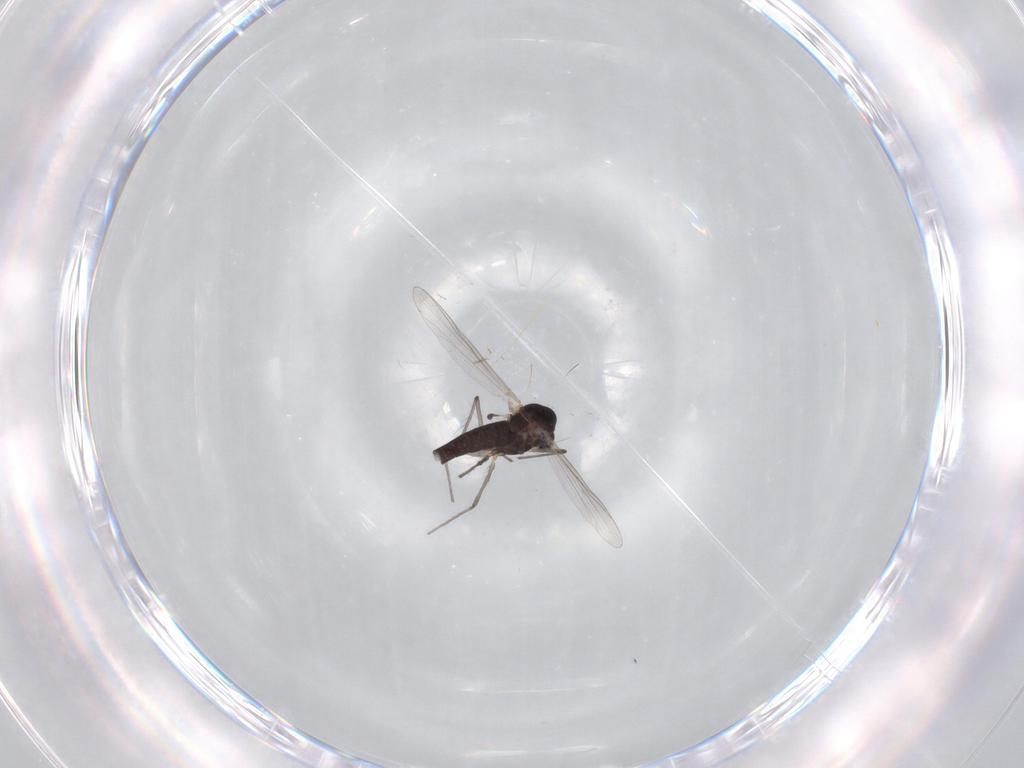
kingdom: Animalia
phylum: Arthropoda
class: Insecta
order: Diptera
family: Chironomidae
